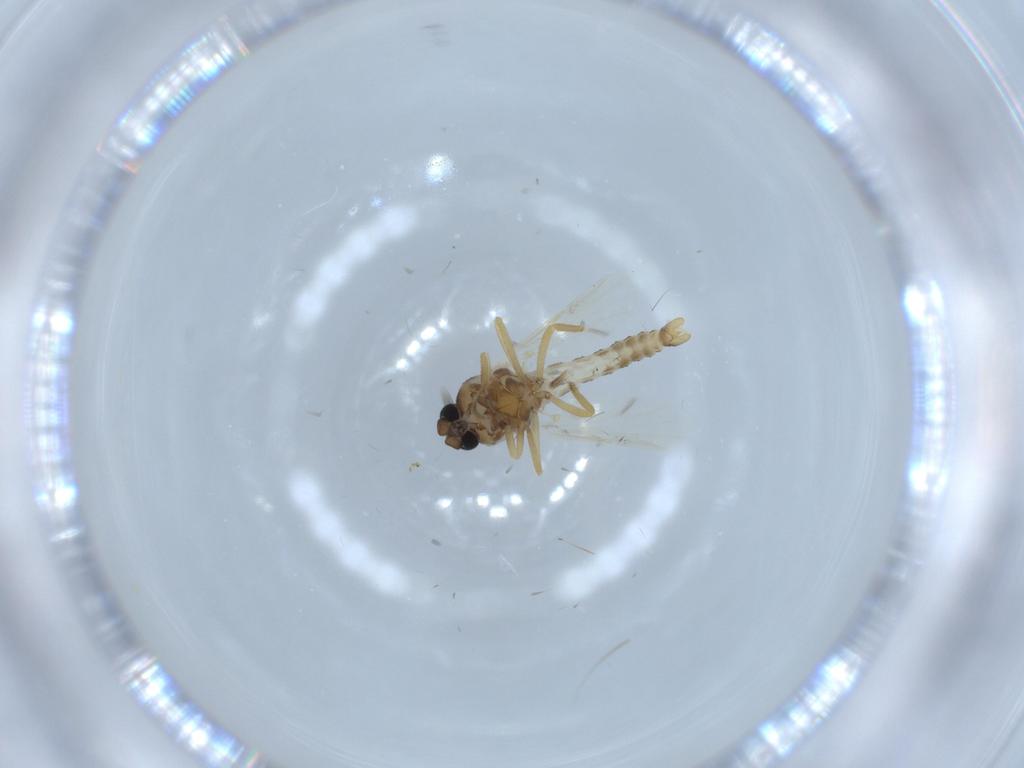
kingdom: Animalia
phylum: Arthropoda
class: Insecta
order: Diptera
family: Ceratopogonidae
